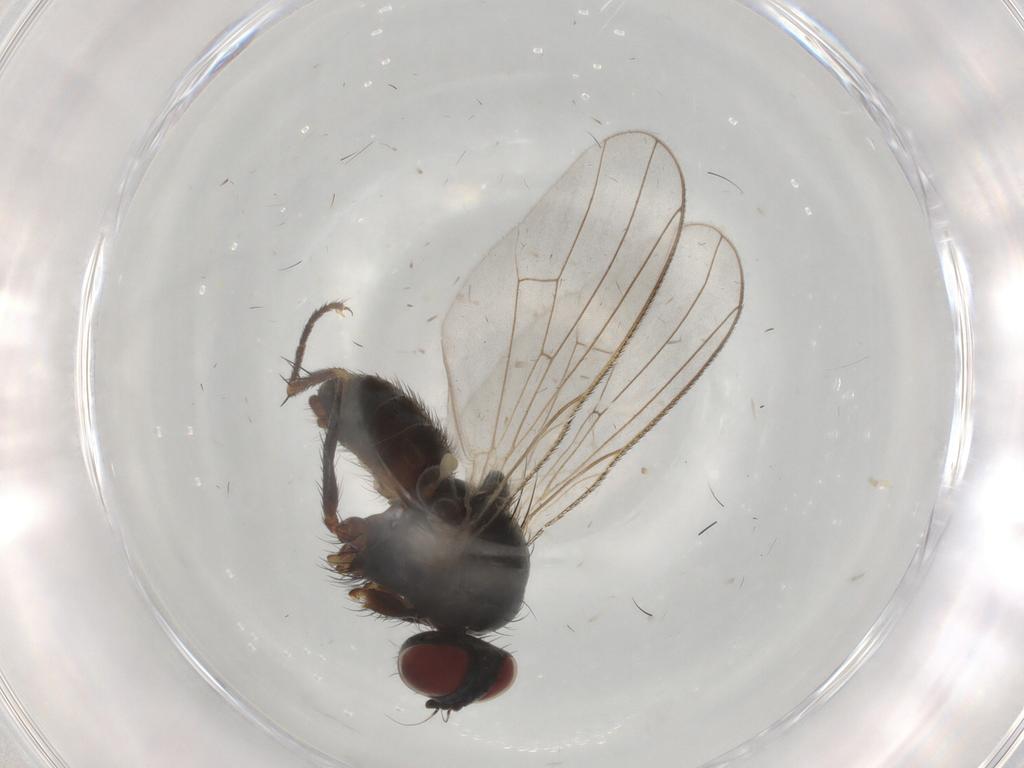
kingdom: Animalia
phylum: Arthropoda
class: Insecta
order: Diptera
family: Dolichopodidae
